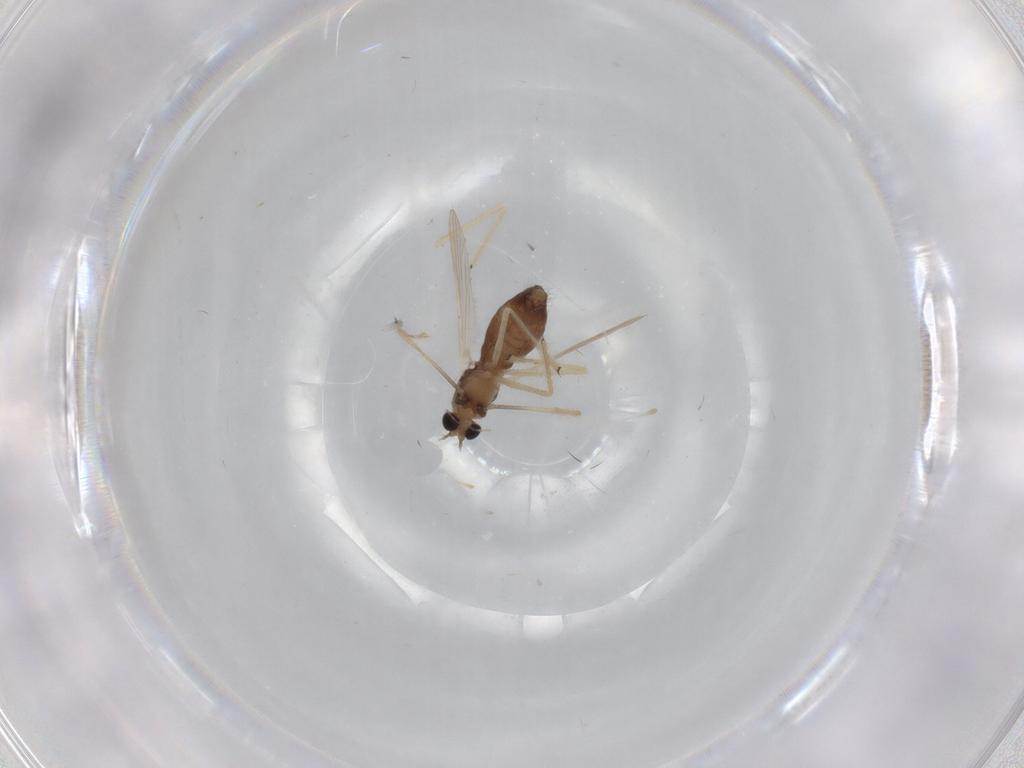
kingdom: Animalia
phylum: Arthropoda
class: Insecta
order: Diptera
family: Chironomidae
